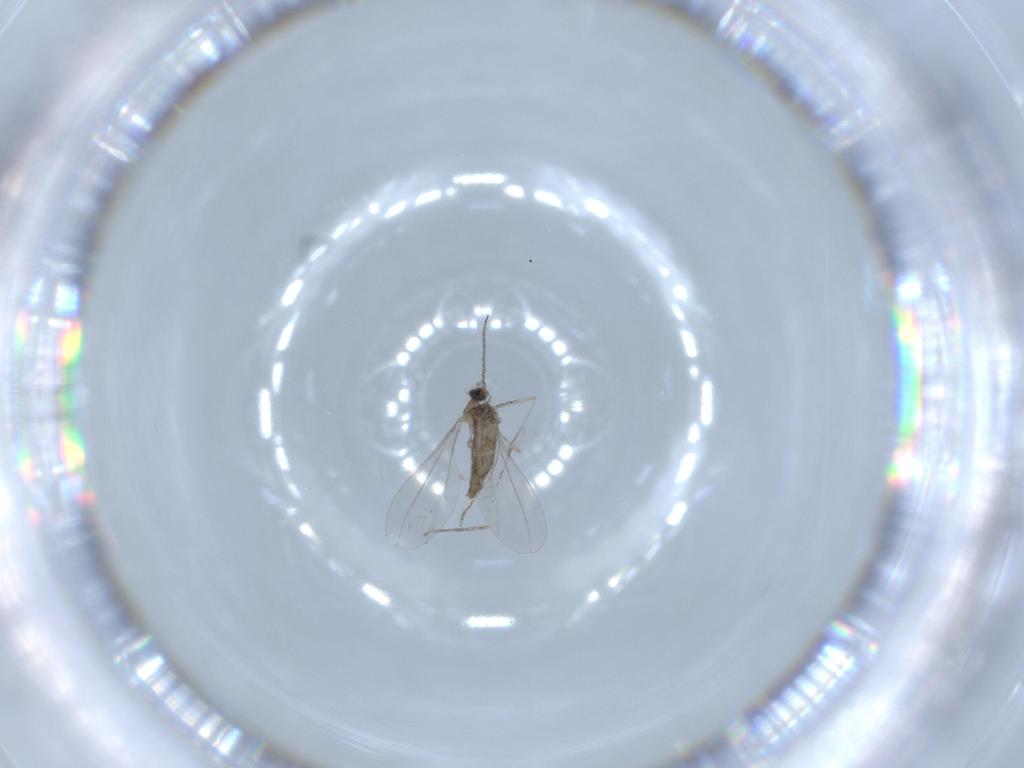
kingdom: Animalia
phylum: Arthropoda
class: Insecta
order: Diptera
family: Cecidomyiidae
